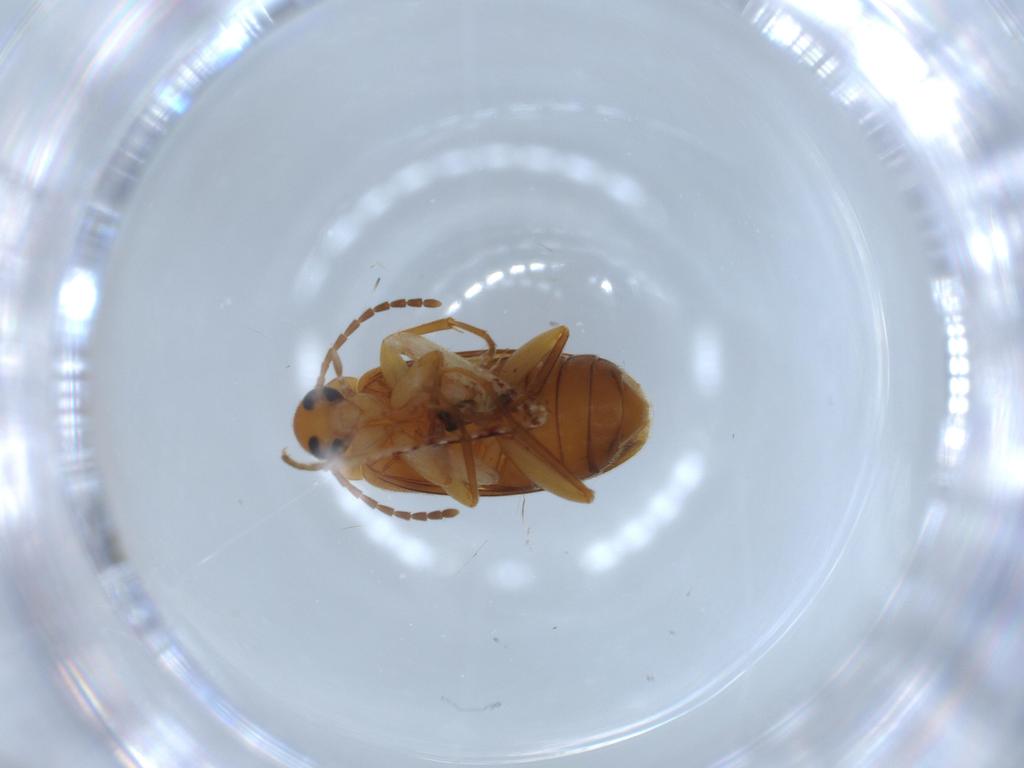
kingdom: Animalia
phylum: Arthropoda
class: Insecta
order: Coleoptera
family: Scraptiidae
